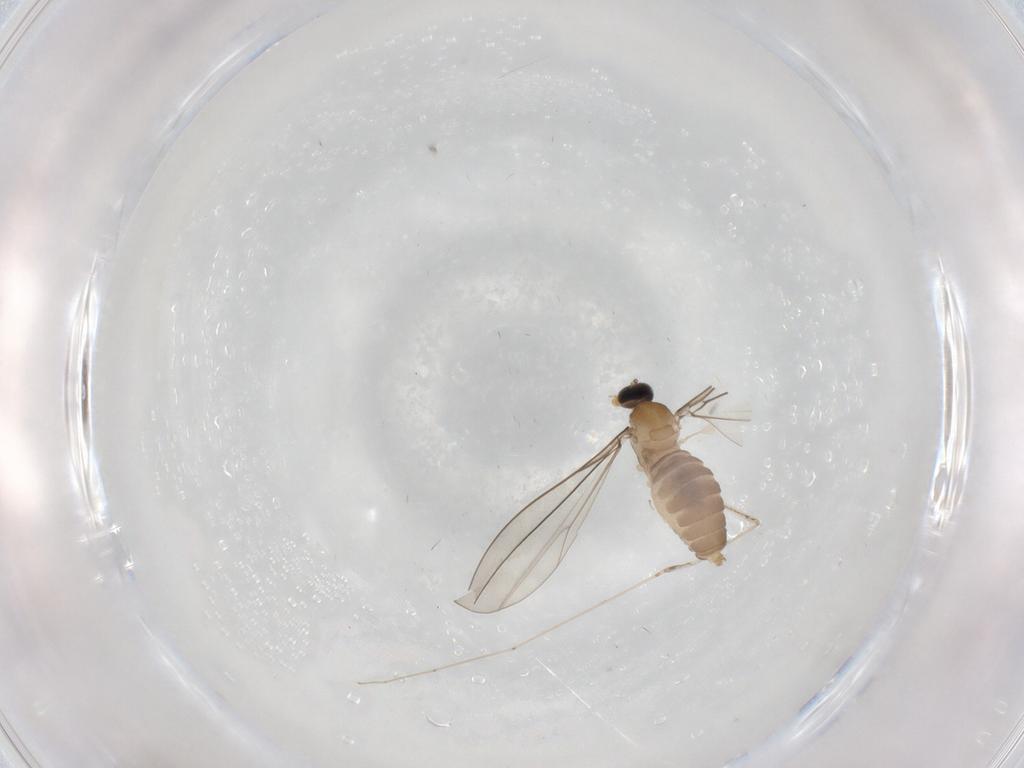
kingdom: Animalia
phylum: Arthropoda
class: Insecta
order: Diptera
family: Cecidomyiidae
